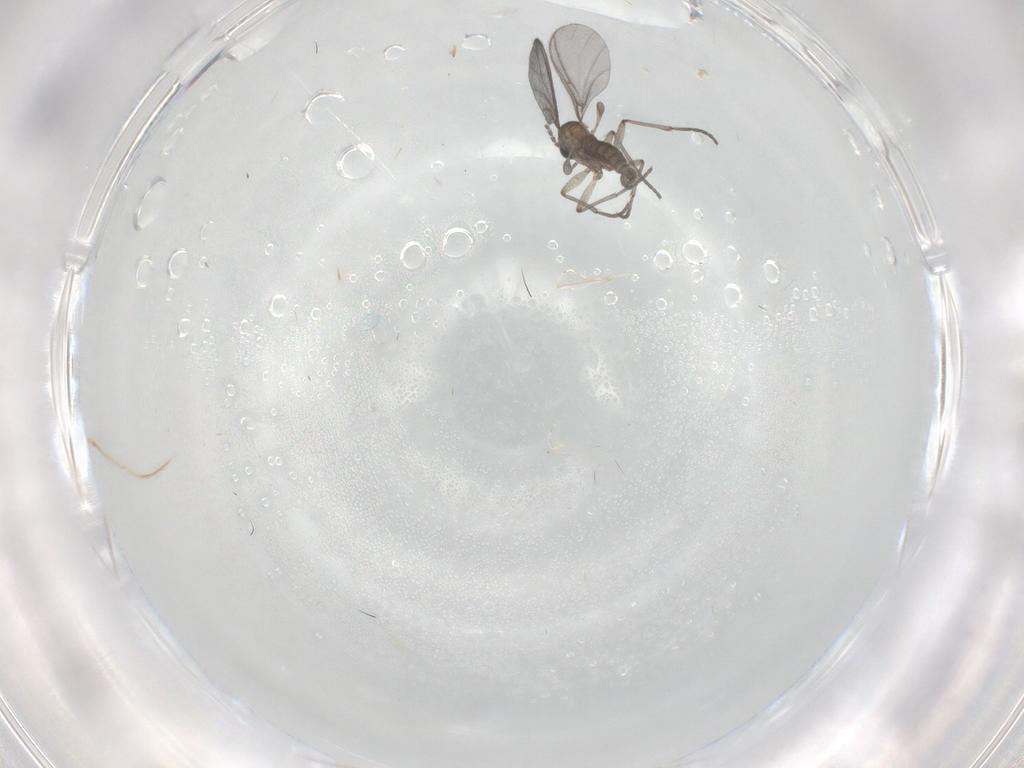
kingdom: Animalia
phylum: Arthropoda
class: Insecta
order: Diptera
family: Sciaridae
